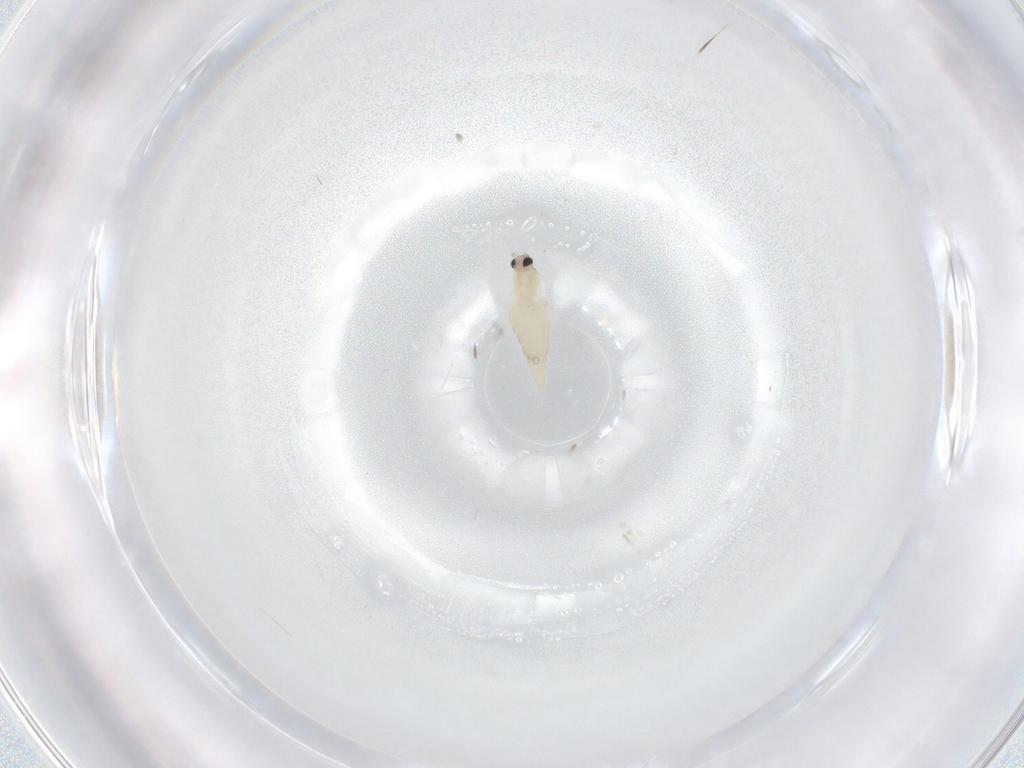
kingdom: Animalia
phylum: Arthropoda
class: Insecta
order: Diptera
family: Cecidomyiidae
